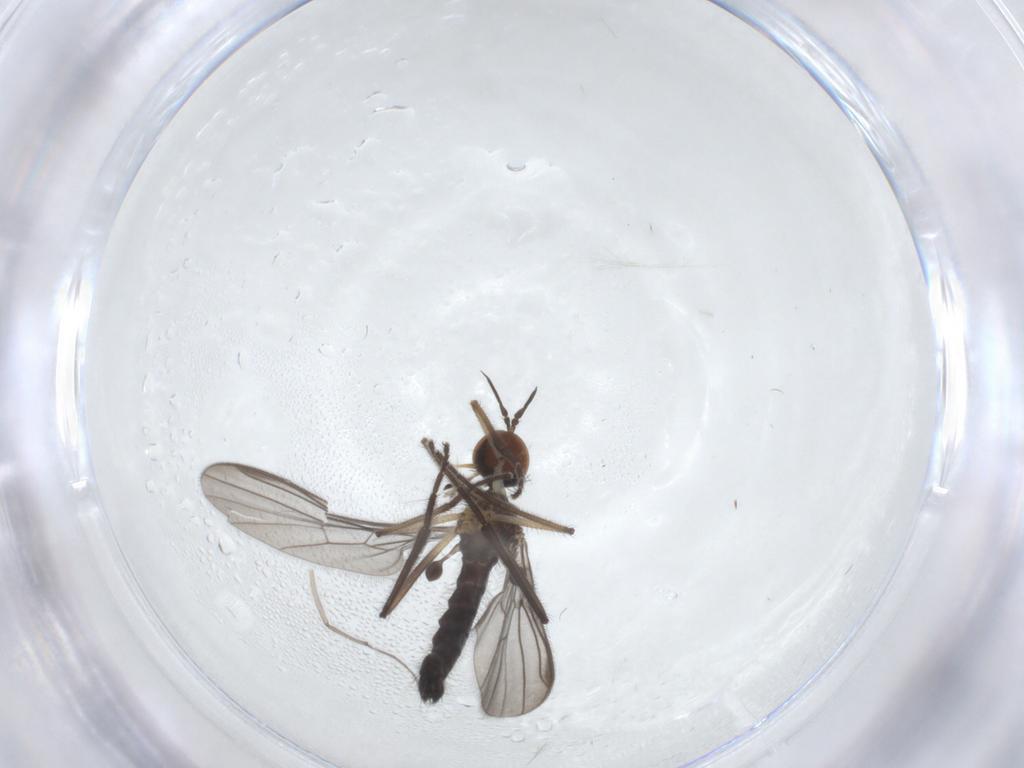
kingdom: Animalia
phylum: Arthropoda
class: Insecta
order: Diptera
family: Empididae
